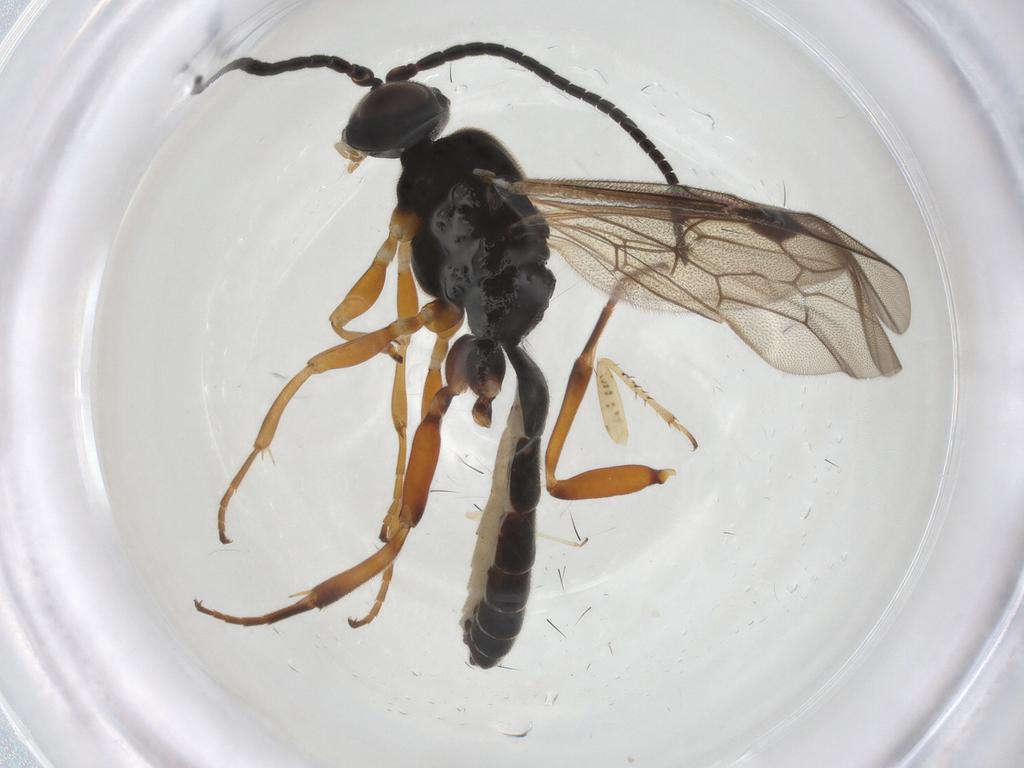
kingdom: Animalia
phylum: Arthropoda
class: Insecta
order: Hymenoptera
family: Ichneumonidae
